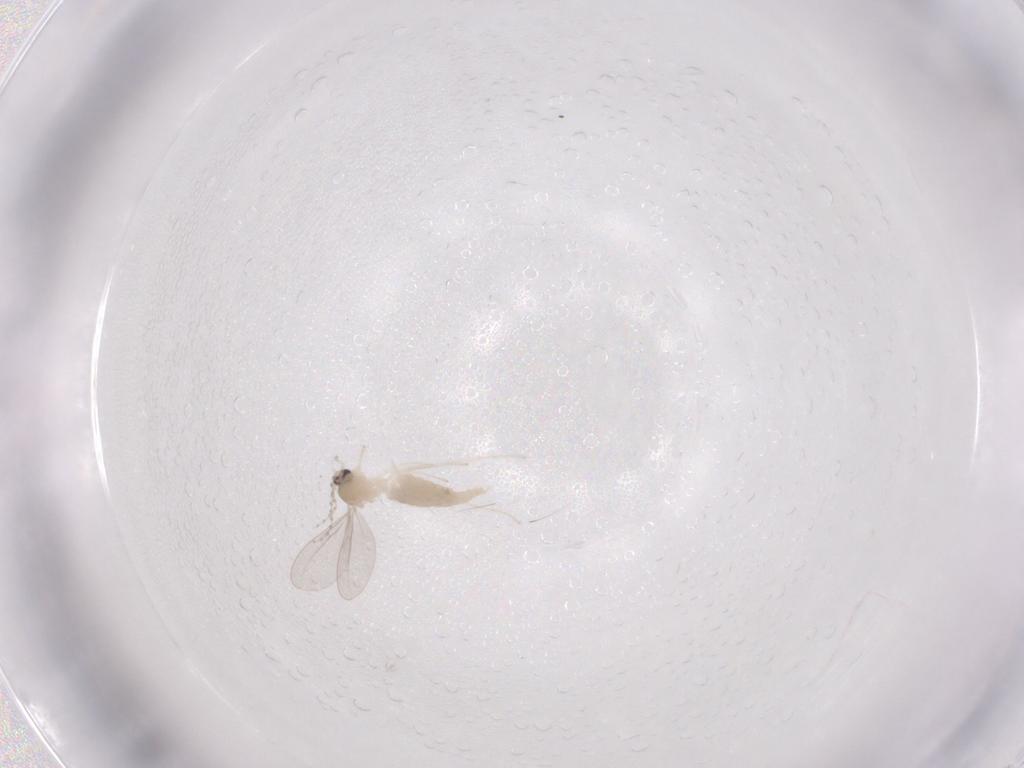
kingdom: Animalia
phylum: Arthropoda
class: Insecta
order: Diptera
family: Cecidomyiidae
